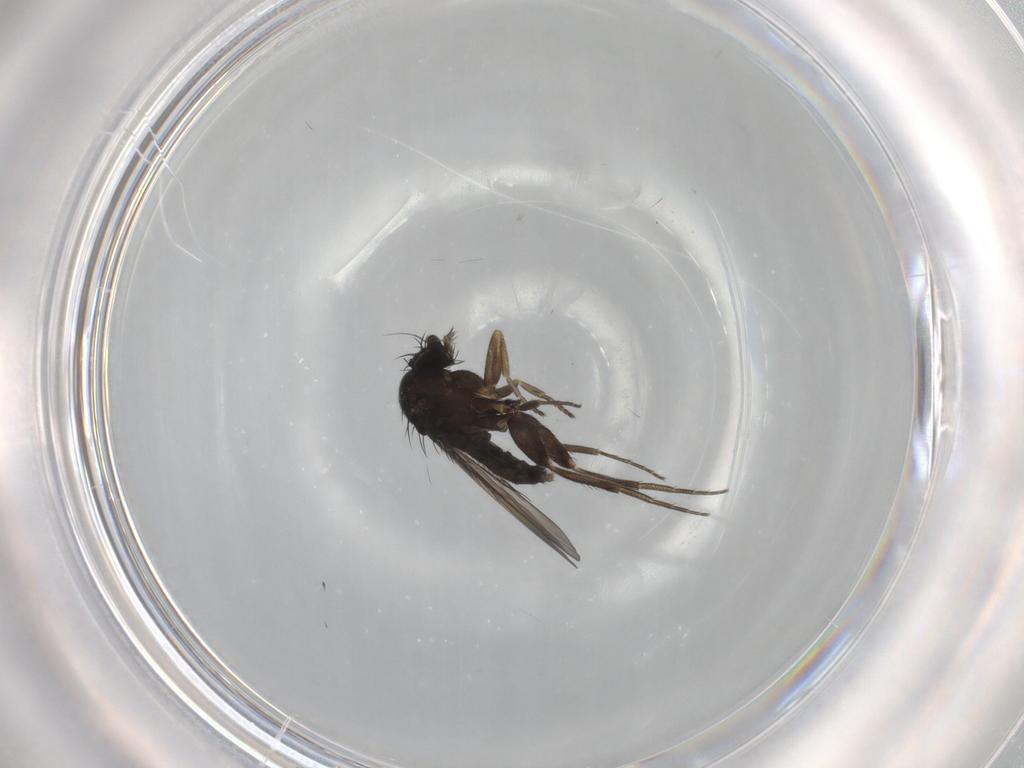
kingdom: Animalia
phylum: Arthropoda
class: Insecta
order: Diptera
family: Phoridae
